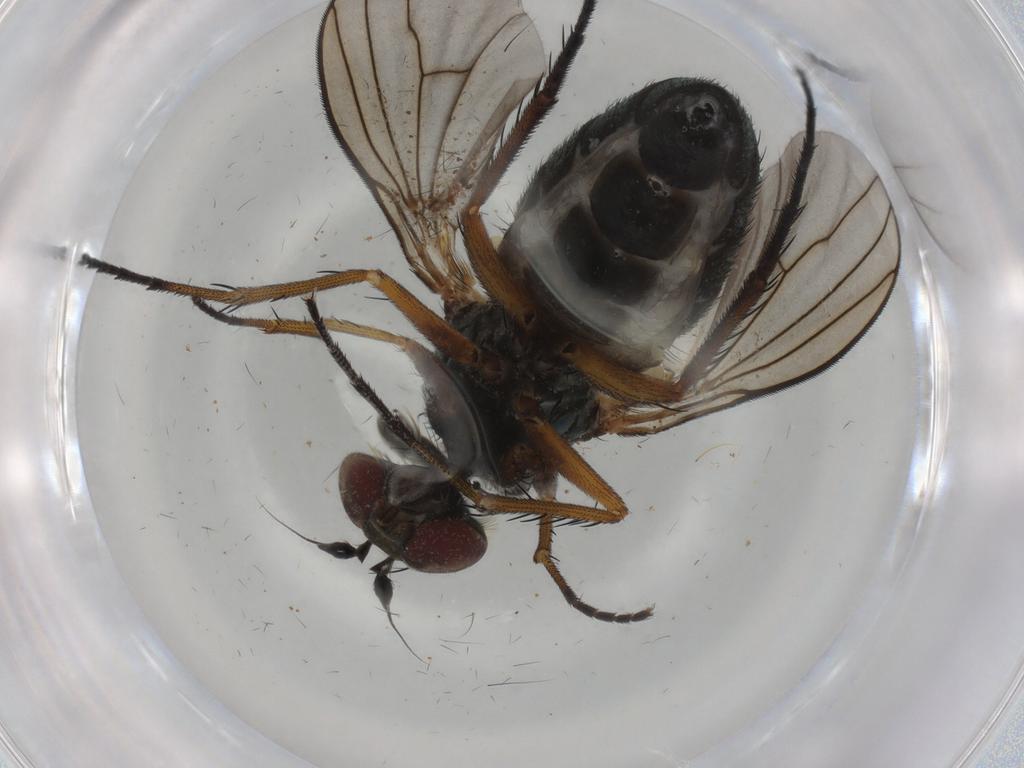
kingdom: Animalia
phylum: Arthropoda
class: Insecta
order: Diptera
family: Dolichopodidae
